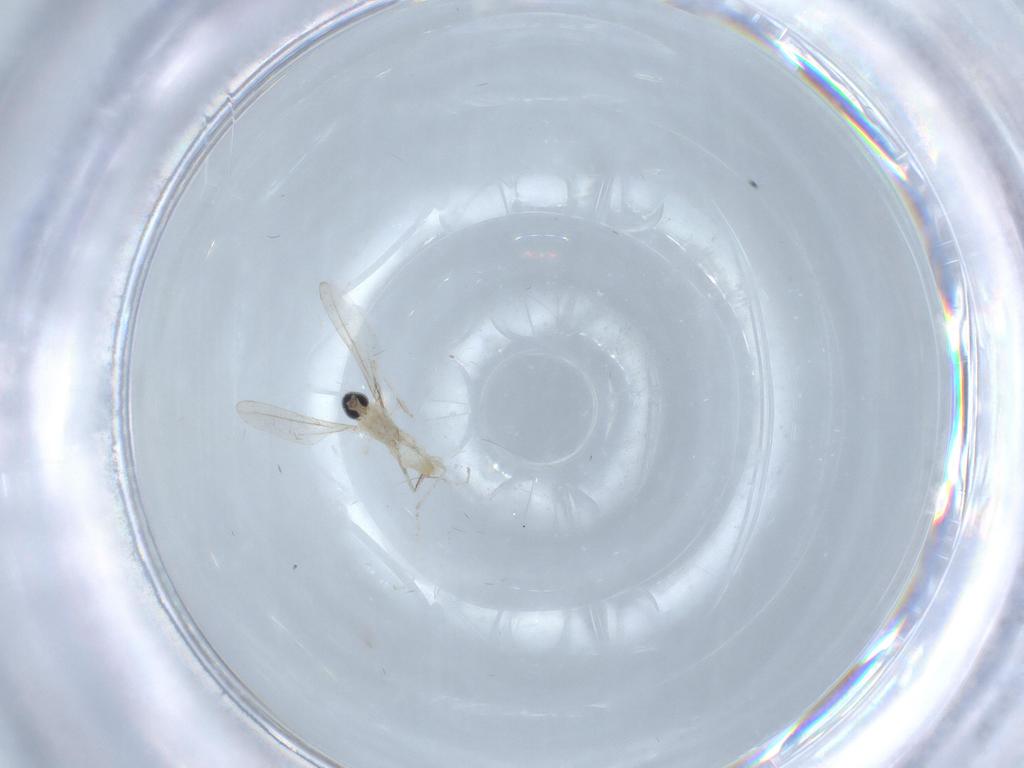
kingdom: Animalia
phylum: Arthropoda
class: Insecta
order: Diptera
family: Cecidomyiidae
